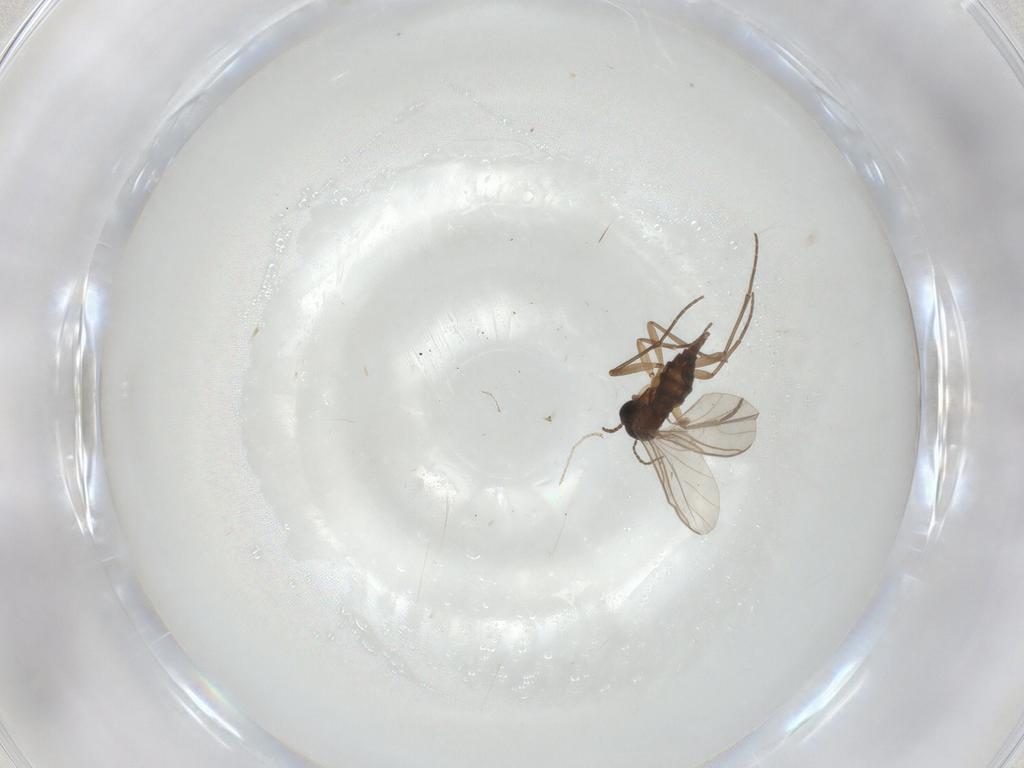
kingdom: Animalia
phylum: Arthropoda
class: Insecta
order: Diptera
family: Sciaridae
